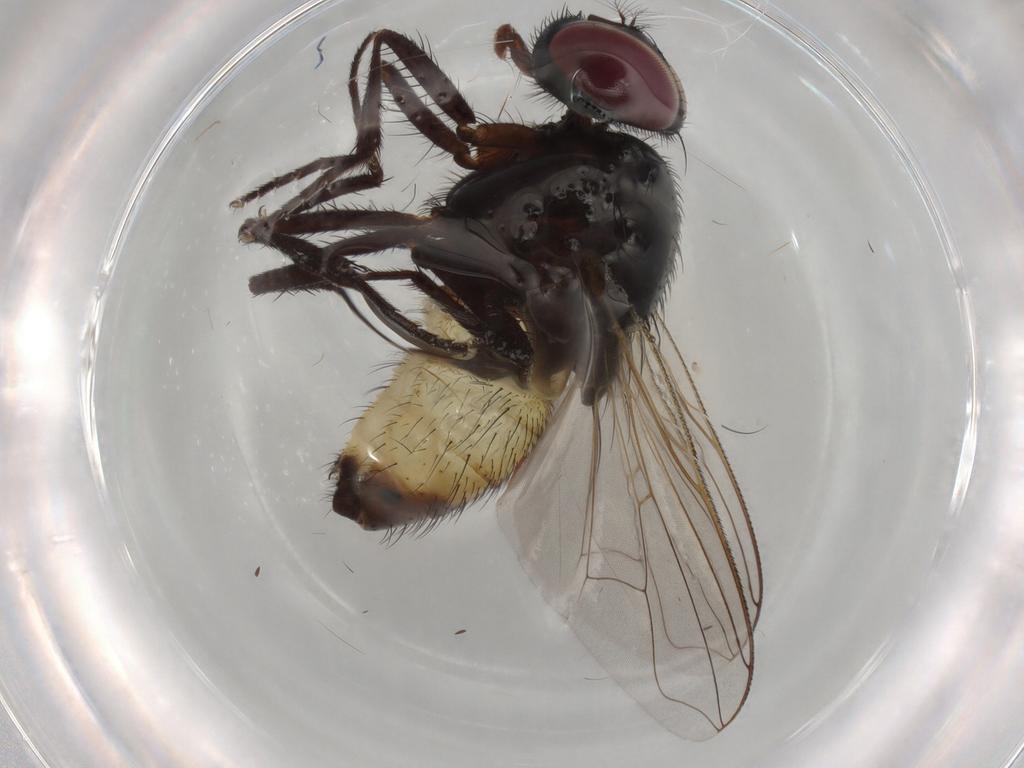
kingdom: Animalia
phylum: Arthropoda
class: Insecta
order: Diptera
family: Muscidae
